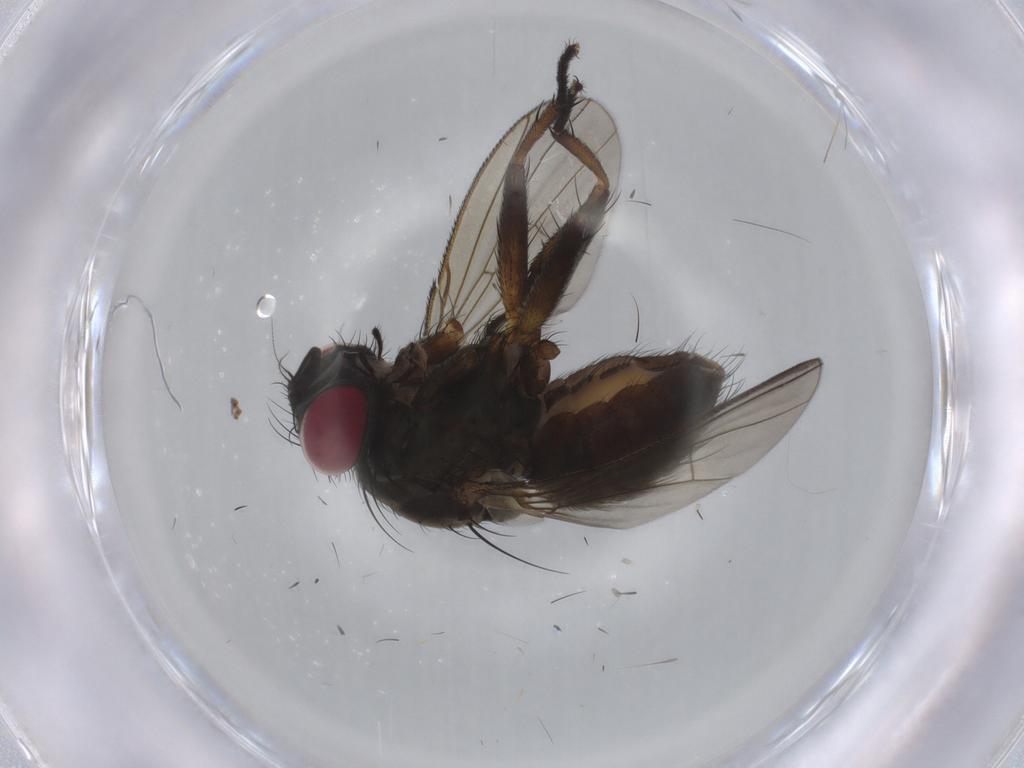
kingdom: Animalia
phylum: Arthropoda
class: Insecta
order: Diptera
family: Muscidae
